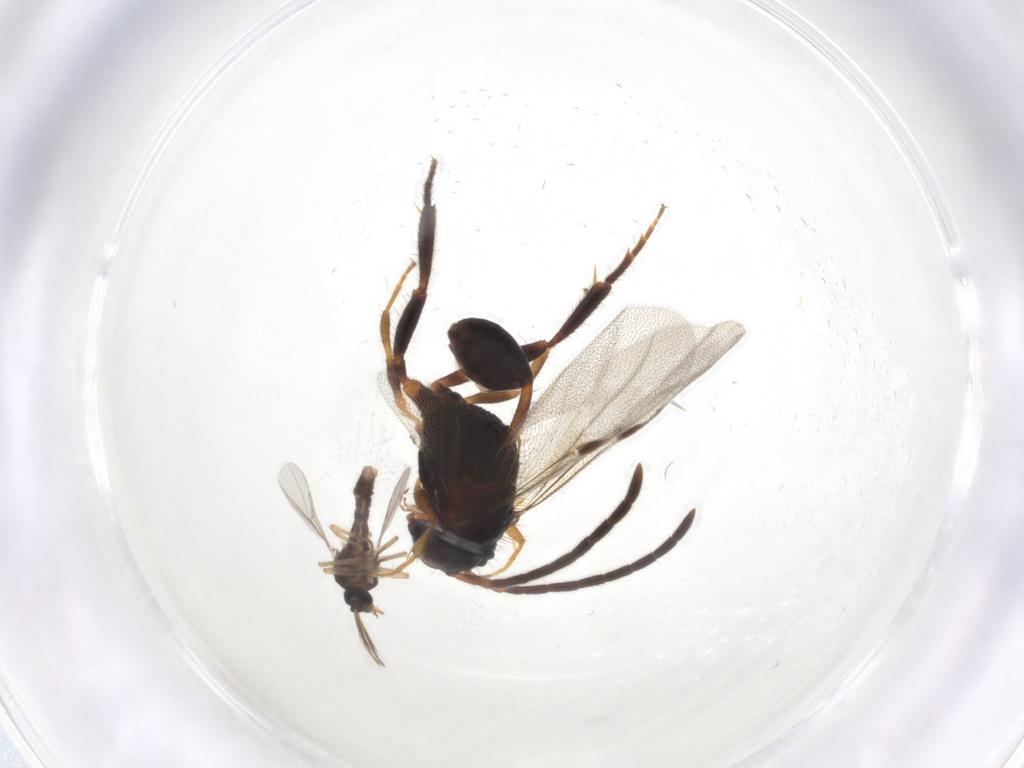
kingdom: Animalia
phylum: Arthropoda
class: Insecta
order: Diptera
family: Ceratopogonidae
